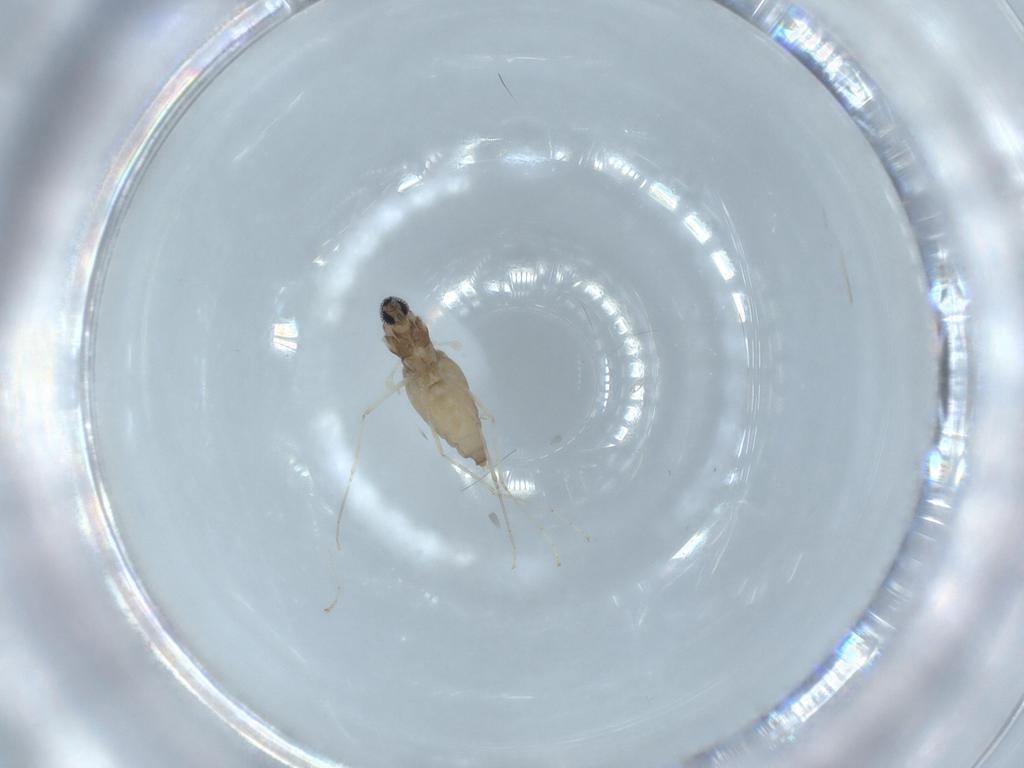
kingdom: Animalia
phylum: Arthropoda
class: Insecta
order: Diptera
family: Cecidomyiidae
